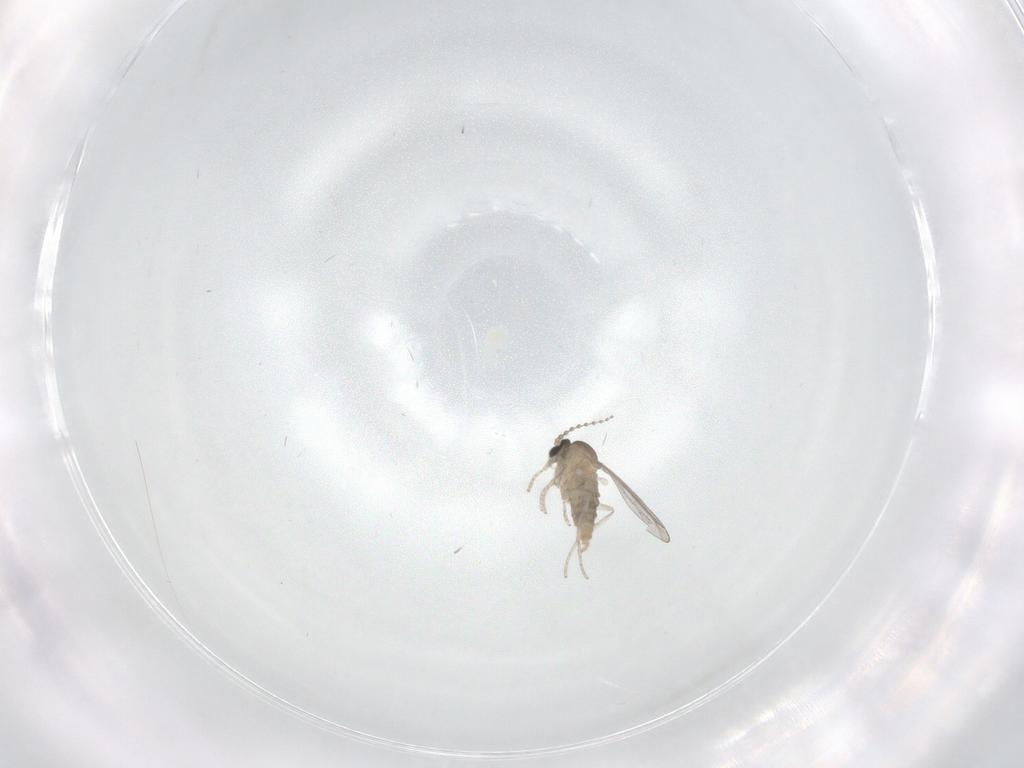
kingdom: Animalia
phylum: Arthropoda
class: Insecta
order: Diptera
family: Cecidomyiidae
